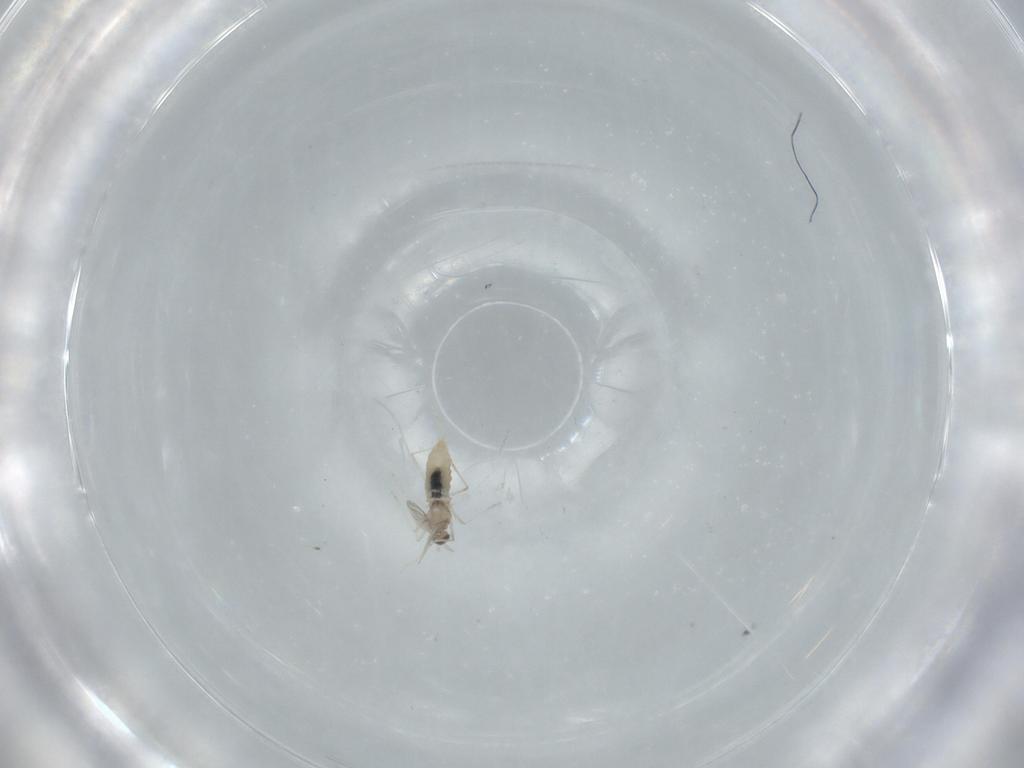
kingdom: Animalia
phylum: Arthropoda
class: Insecta
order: Diptera
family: Cecidomyiidae
